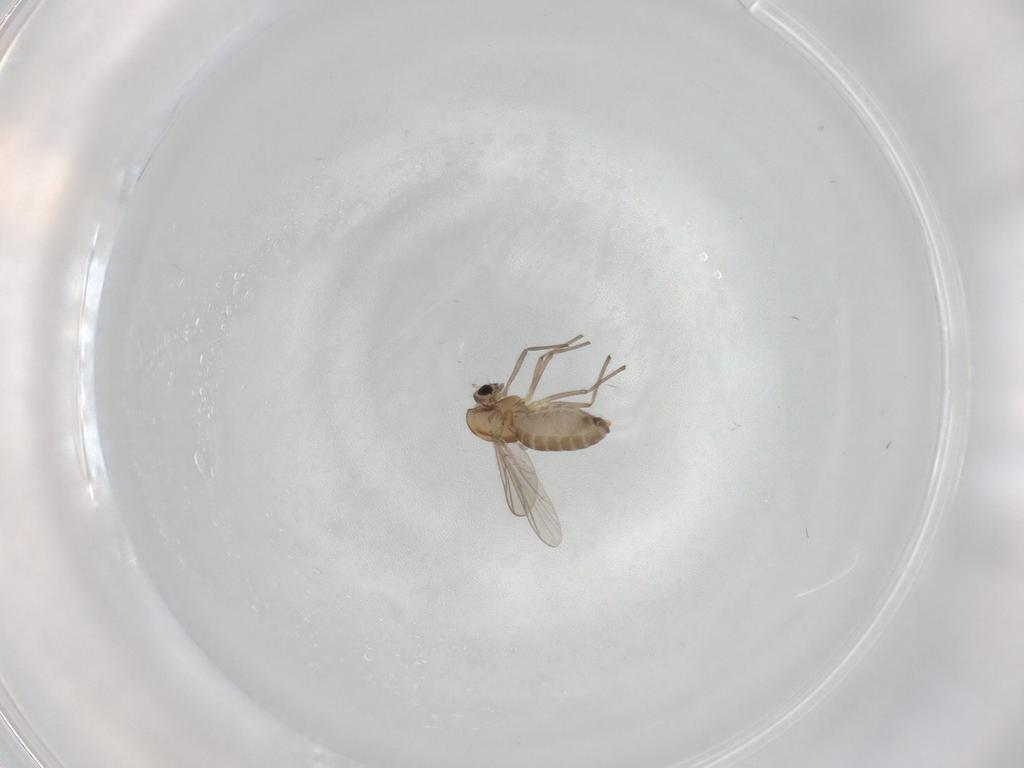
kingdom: Animalia
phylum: Arthropoda
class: Insecta
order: Diptera
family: Chironomidae
